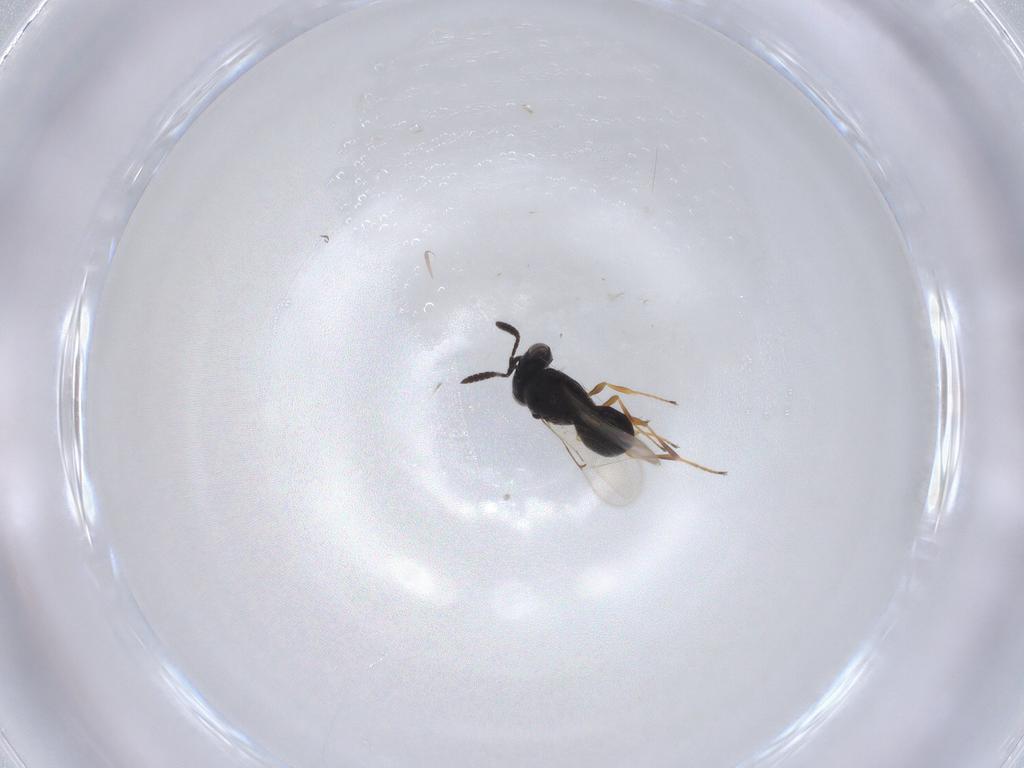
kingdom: Animalia
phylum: Arthropoda
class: Insecta
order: Hymenoptera
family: Scelionidae
